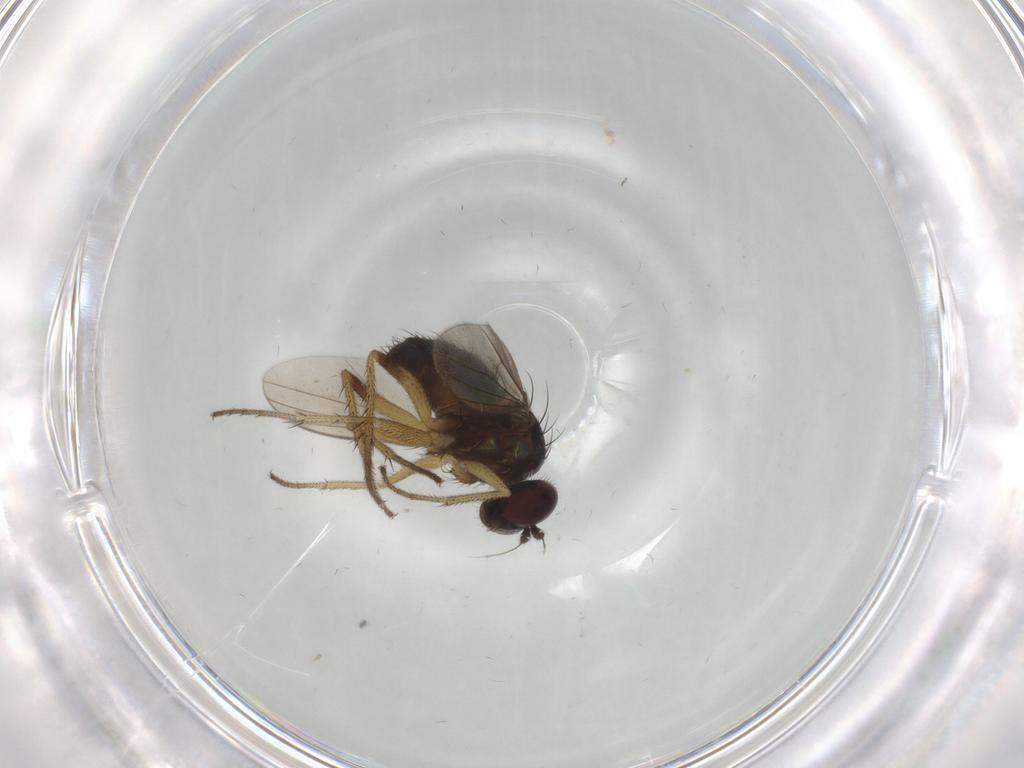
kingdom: Animalia
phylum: Arthropoda
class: Insecta
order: Diptera
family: Dolichopodidae
